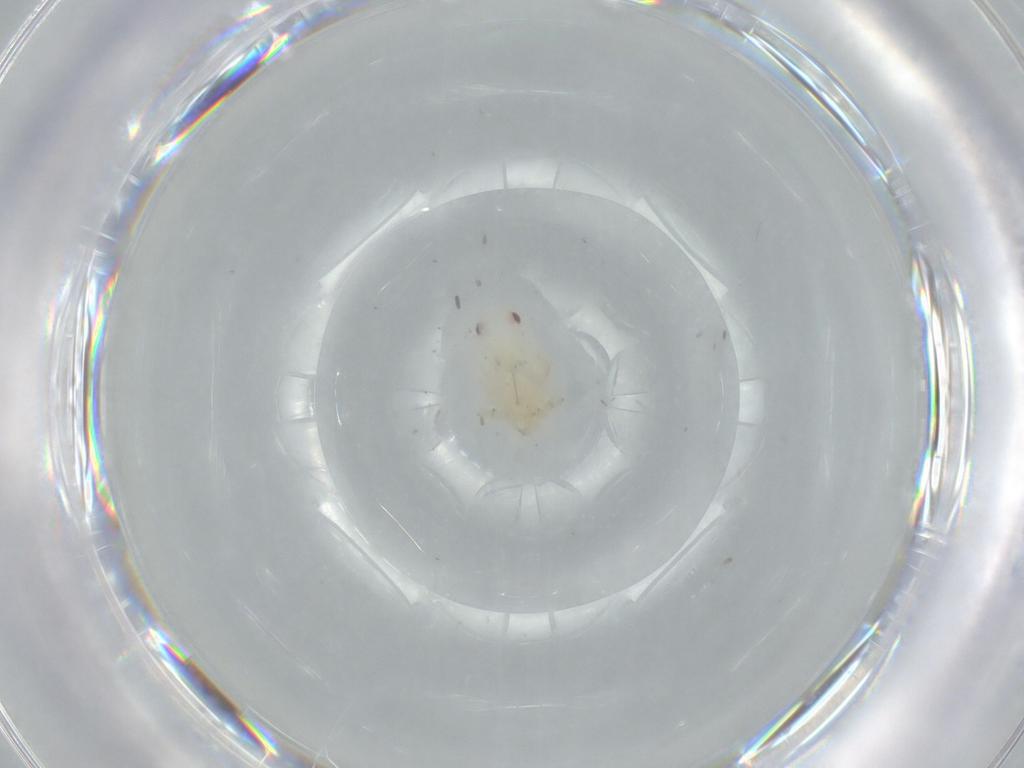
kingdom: Animalia
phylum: Arthropoda
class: Insecta
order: Hemiptera
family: Flatidae
